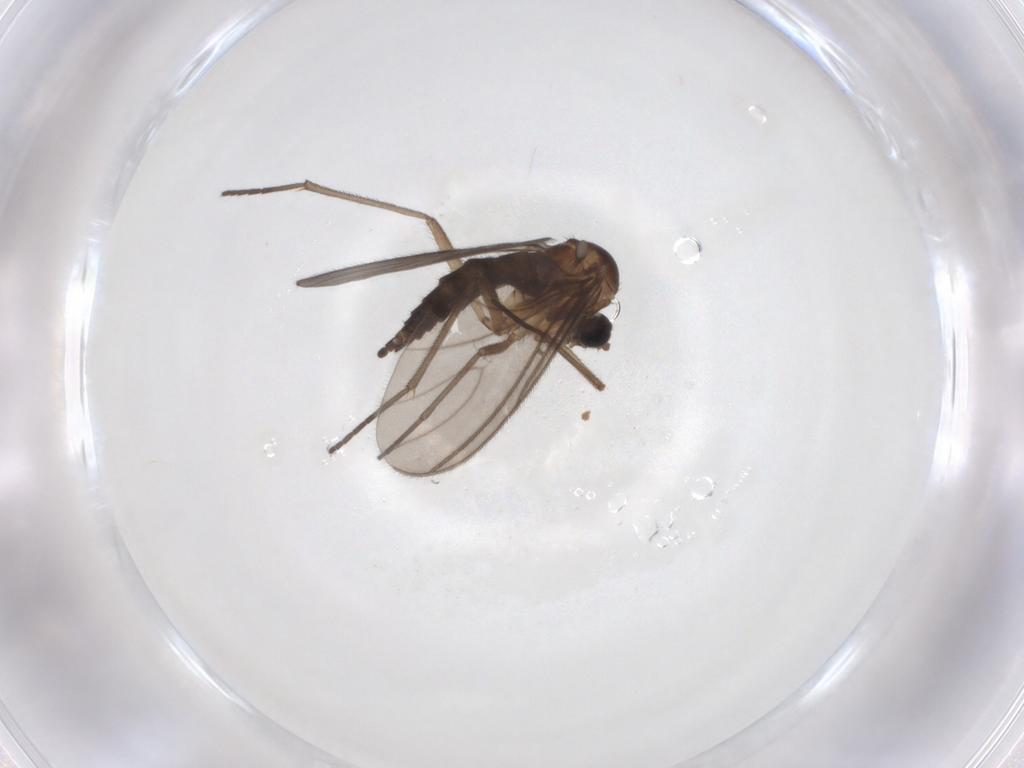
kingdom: Animalia
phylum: Arthropoda
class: Insecta
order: Diptera
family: Sciaridae
